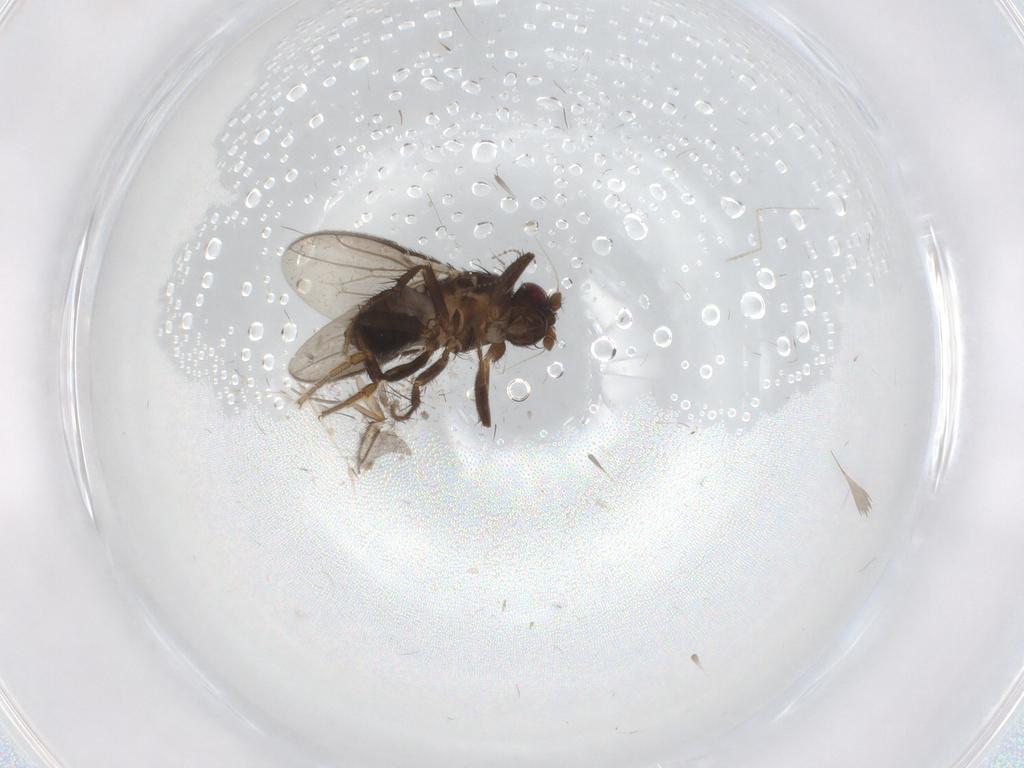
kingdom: Animalia
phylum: Arthropoda
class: Insecta
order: Diptera
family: Sphaeroceridae
